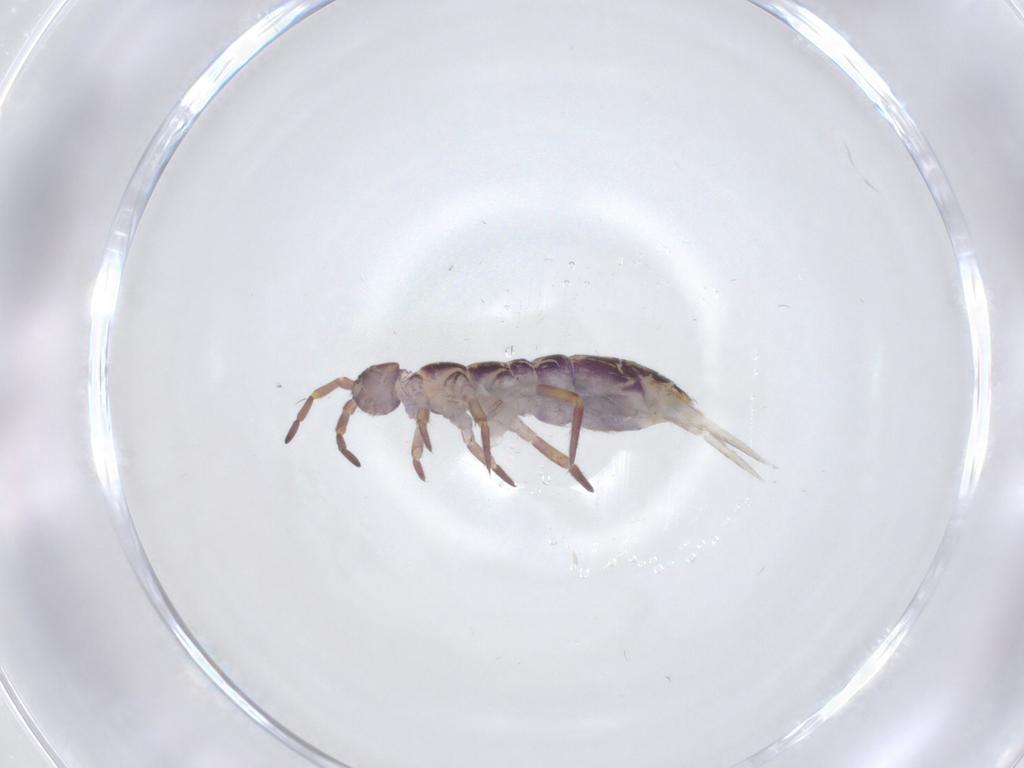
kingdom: Animalia
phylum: Arthropoda
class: Collembola
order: Entomobryomorpha
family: Isotomidae
